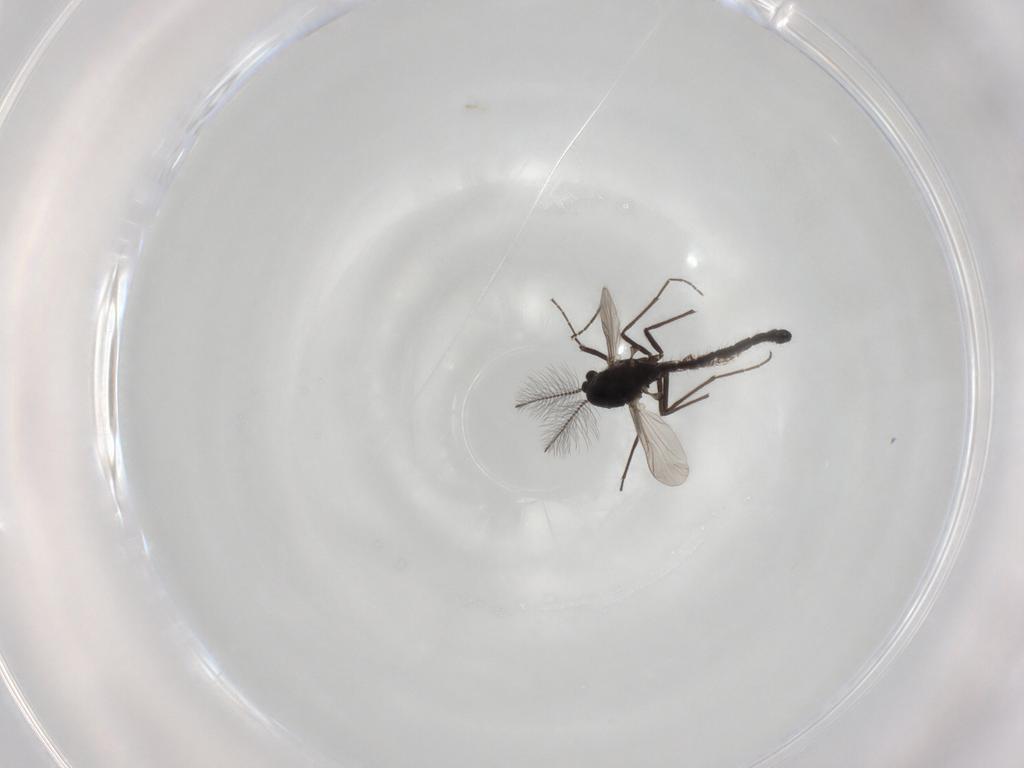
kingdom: Animalia
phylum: Arthropoda
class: Insecta
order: Diptera
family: Chironomidae
